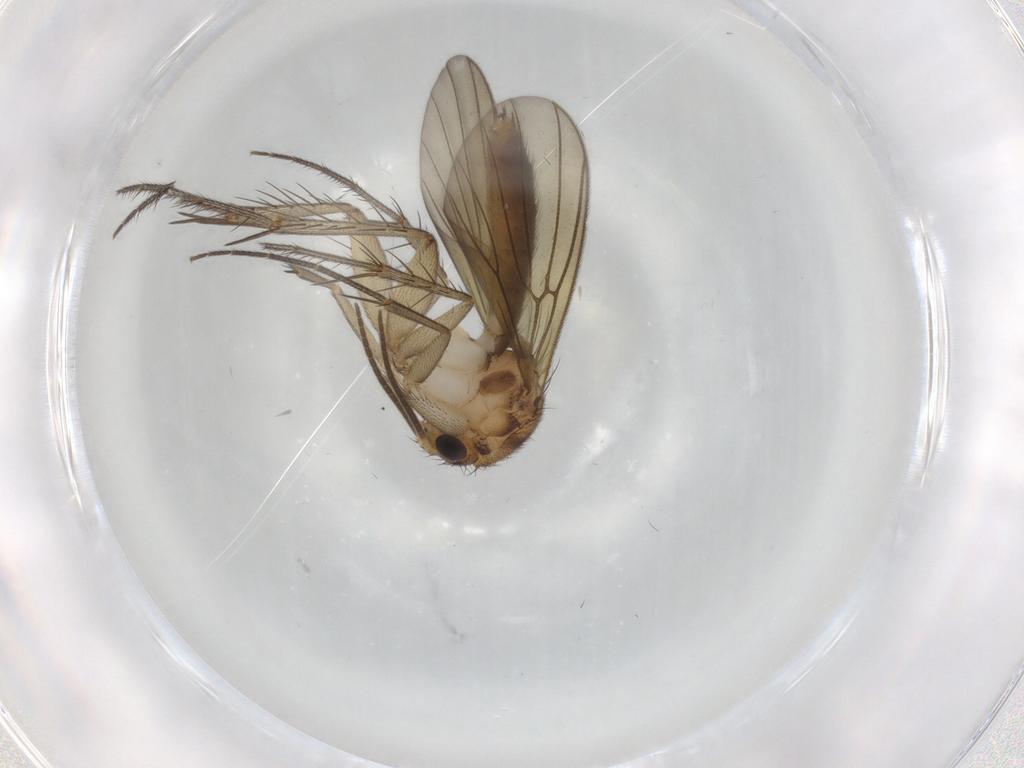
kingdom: Animalia
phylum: Arthropoda
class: Insecta
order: Diptera
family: Mycetophilidae
